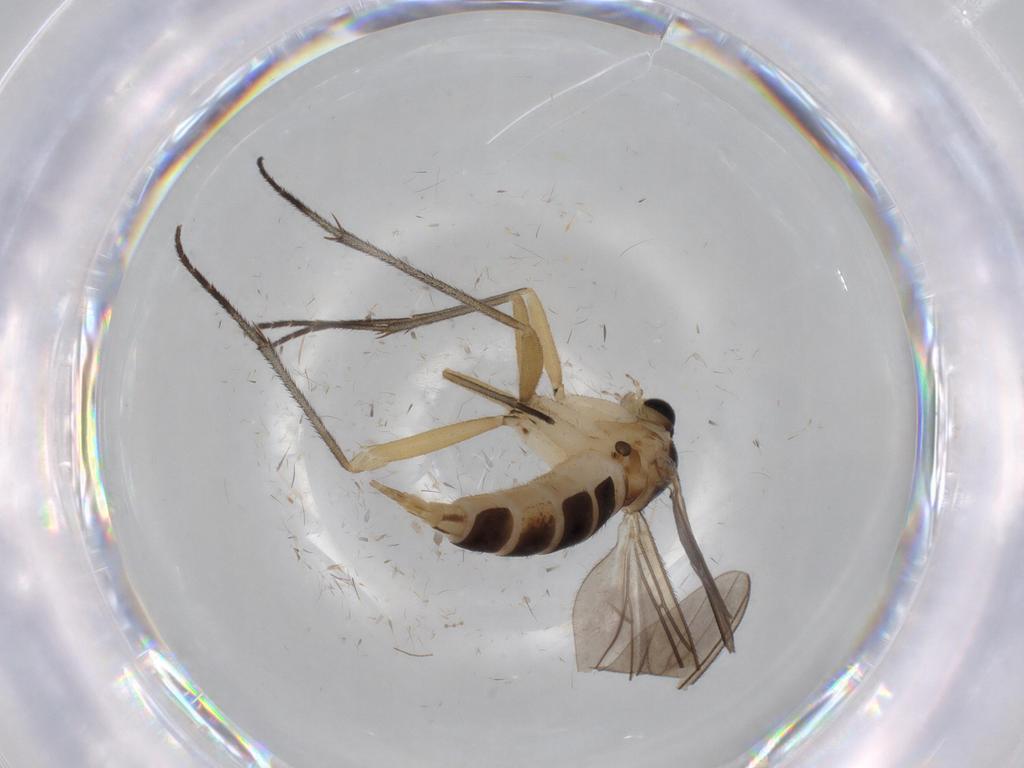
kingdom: Animalia
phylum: Arthropoda
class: Insecta
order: Diptera
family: Sciaridae
